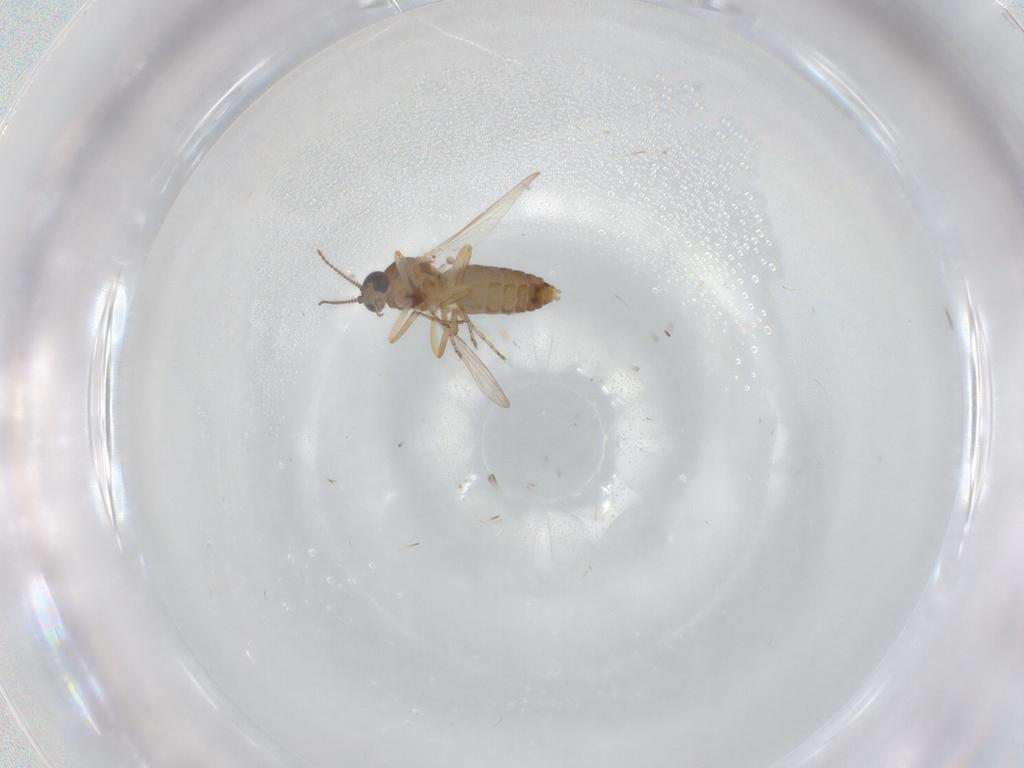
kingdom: Animalia
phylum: Arthropoda
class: Insecta
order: Diptera
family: Ceratopogonidae
